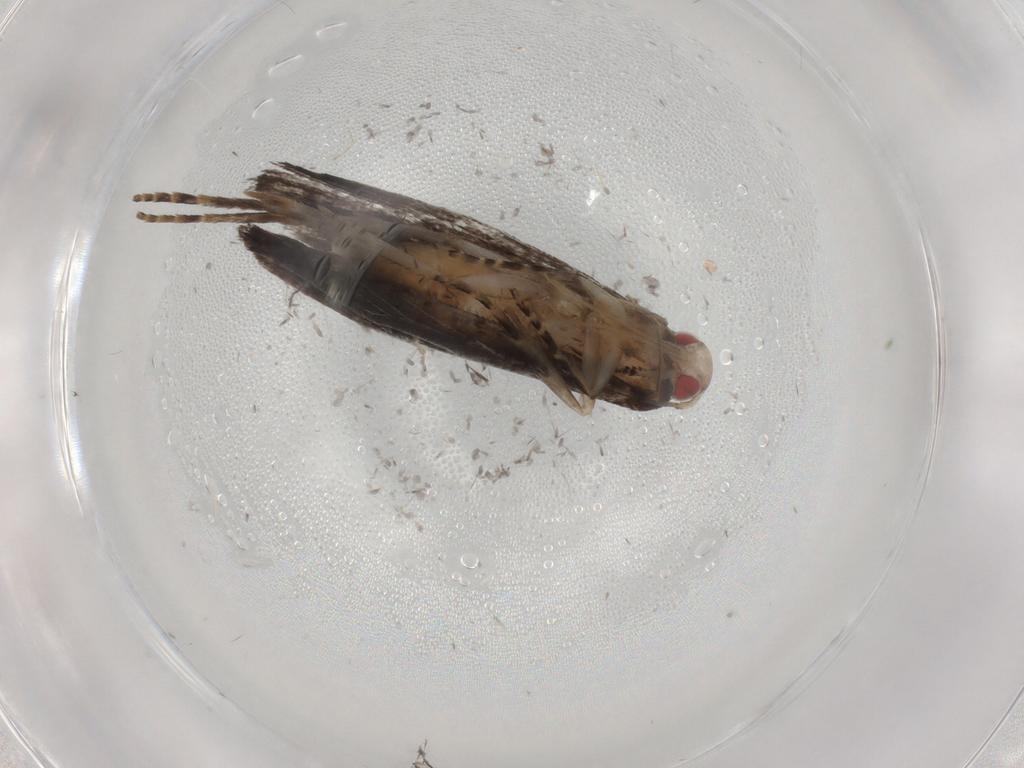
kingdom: Animalia
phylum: Arthropoda
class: Insecta
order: Lepidoptera
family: Gelechiidae
